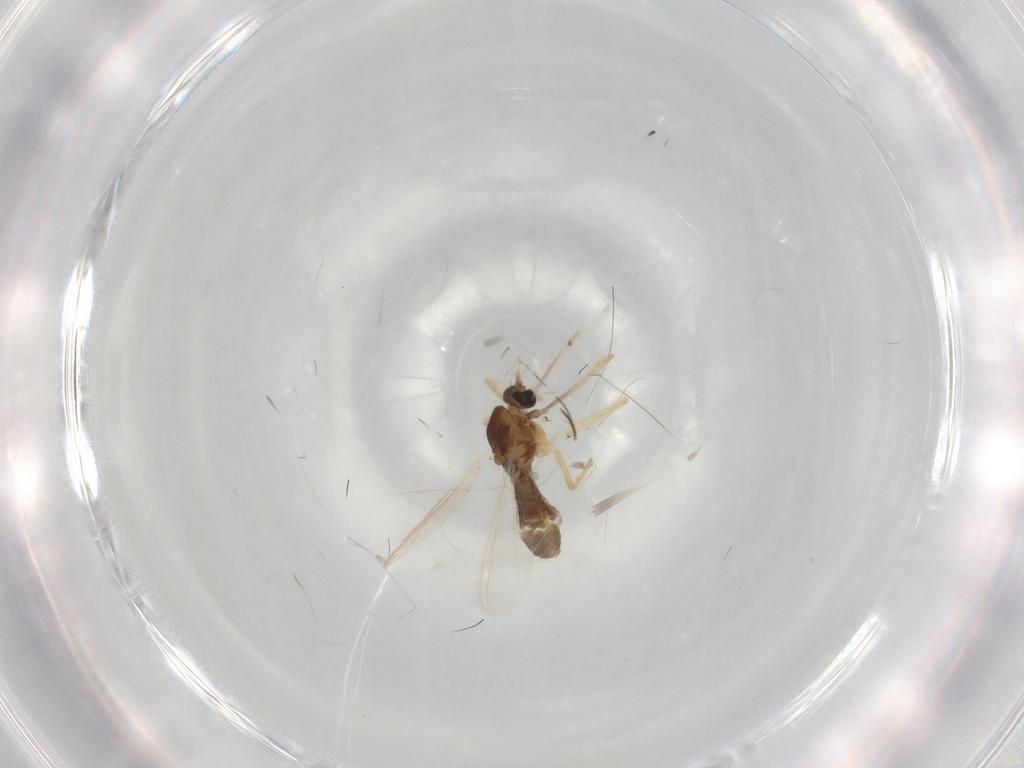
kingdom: Animalia
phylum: Arthropoda
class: Insecta
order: Diptera
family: Chironomidae
